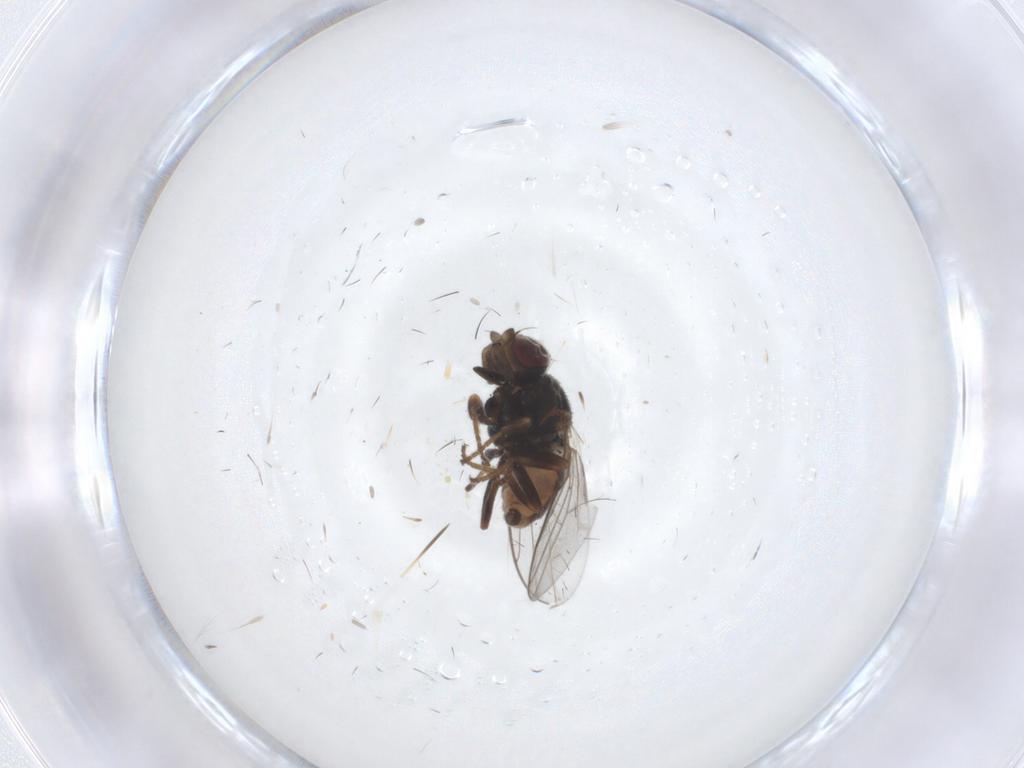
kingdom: Animalia
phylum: Arthropoda
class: Insecta
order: Diptera
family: Chloropidae
